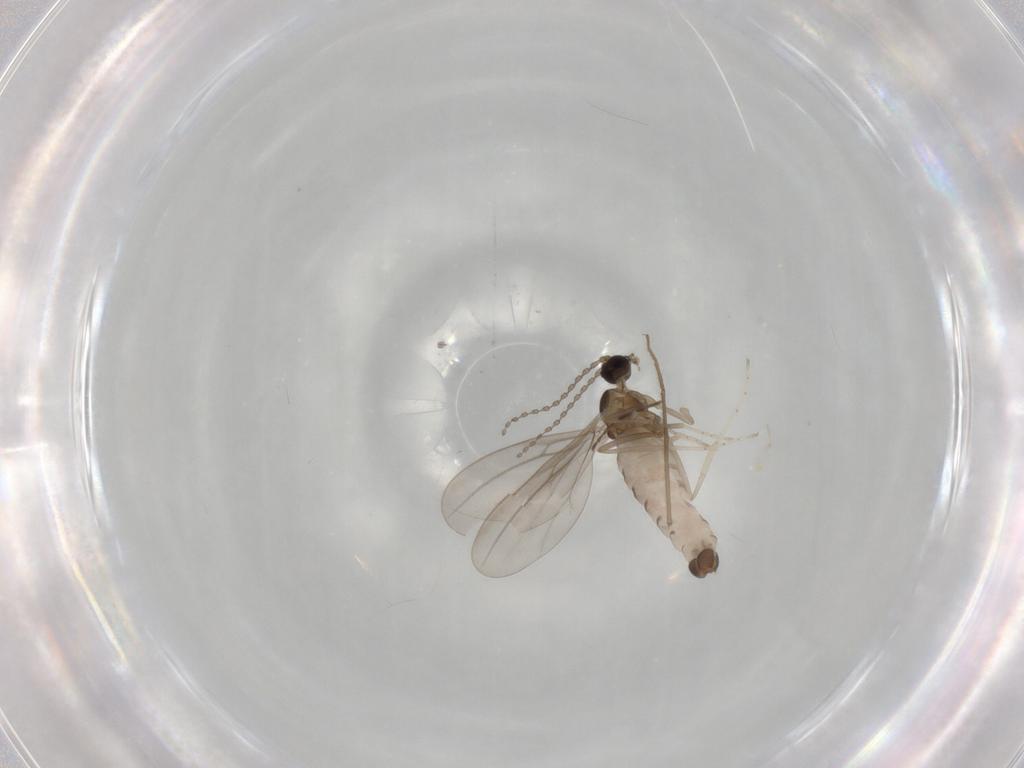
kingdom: Animalia
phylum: Arthropoda
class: Insecta
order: Diptera
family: Cecidomyiidae
